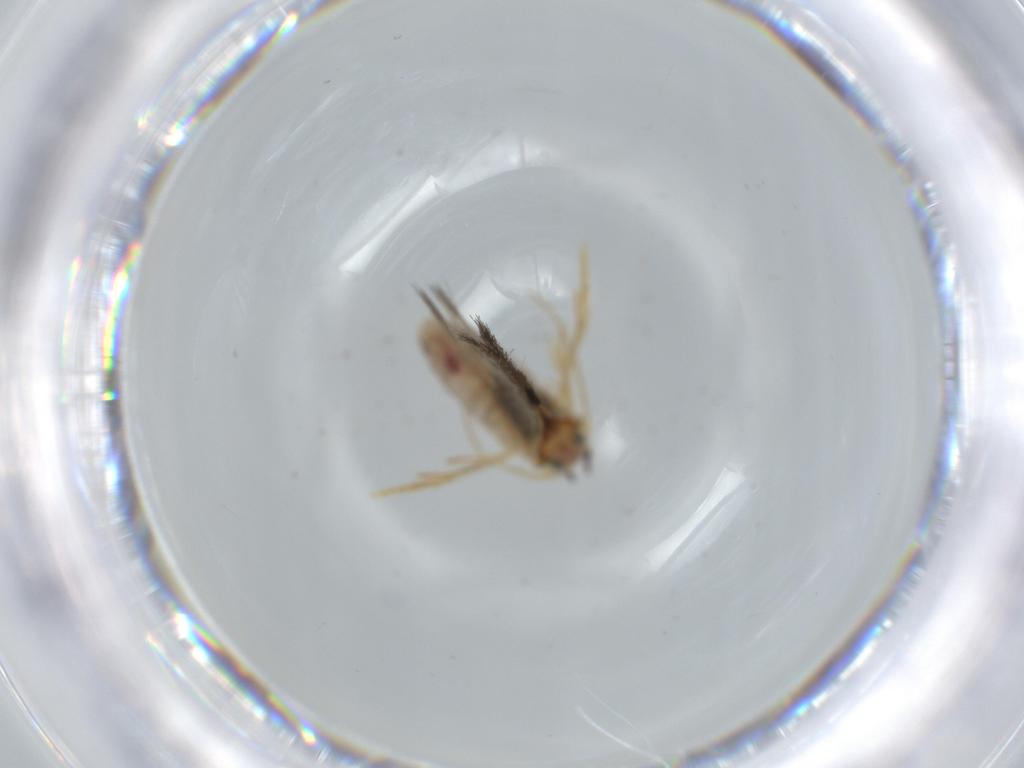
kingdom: Animalia
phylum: Arthropoda
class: Insecta
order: Lepidoptera
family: Nepticulidae
